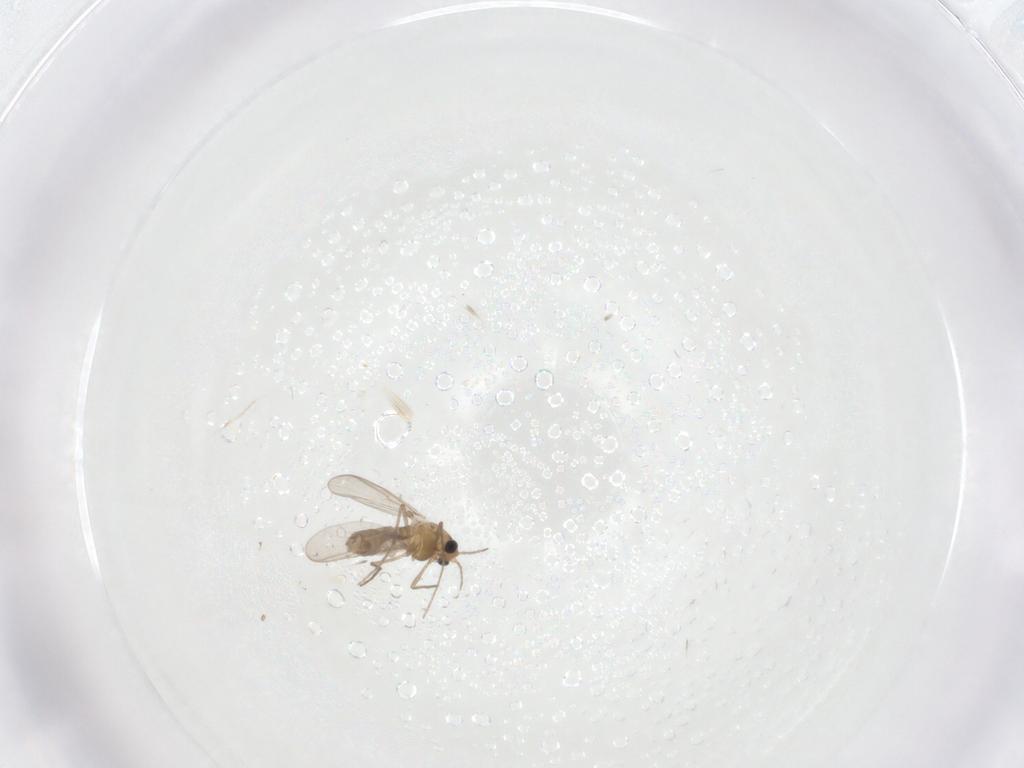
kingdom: Animalia
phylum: Arthropoda
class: Insecta
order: Diptera
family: Chironomidae
